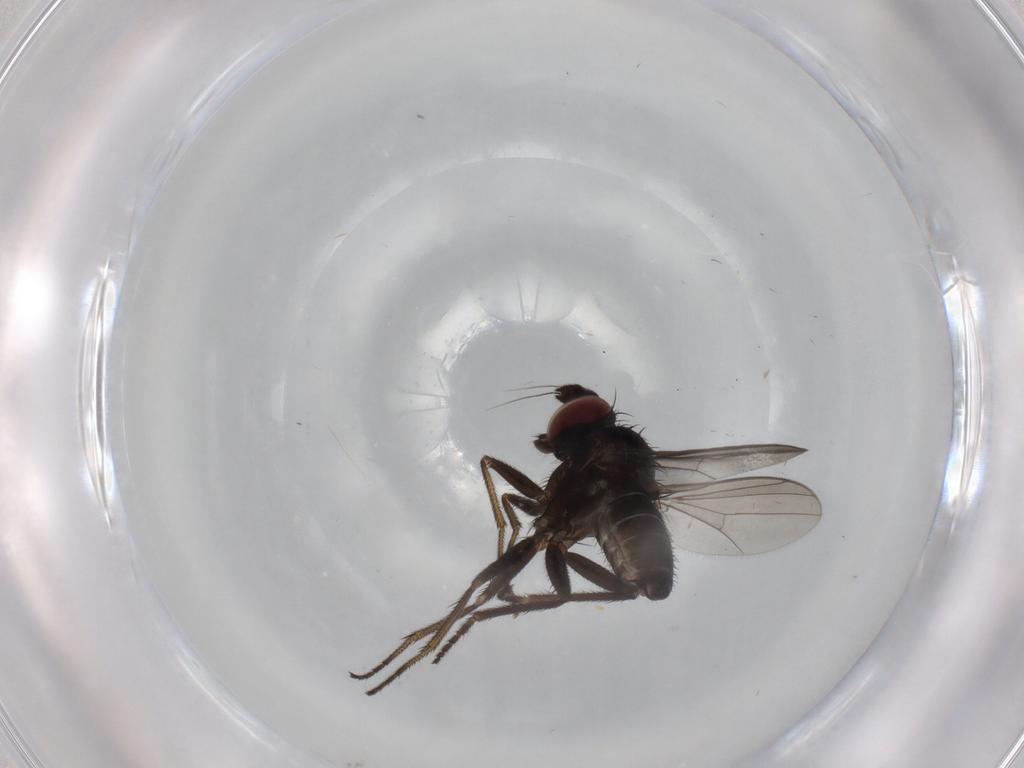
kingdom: Animalia
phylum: Arthropoda
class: Insecta
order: Diptera
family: Dolichopodidae
